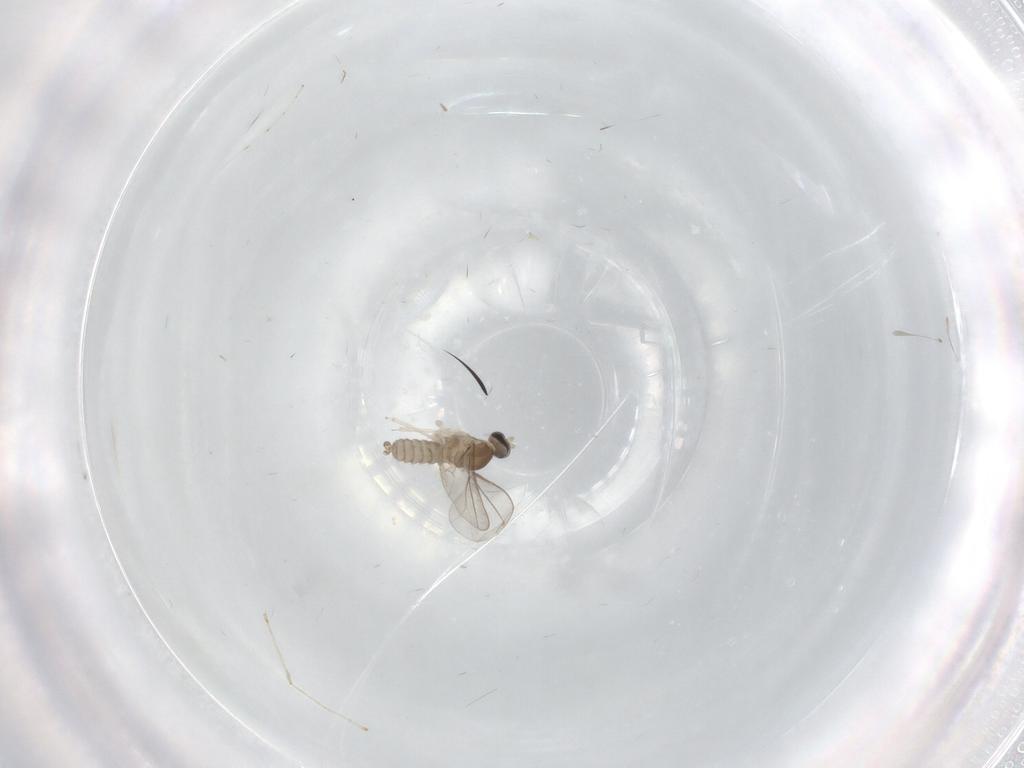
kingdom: Animalia
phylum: Arthropoda
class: Insecta
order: Diptera
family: Cecidomyiidae
